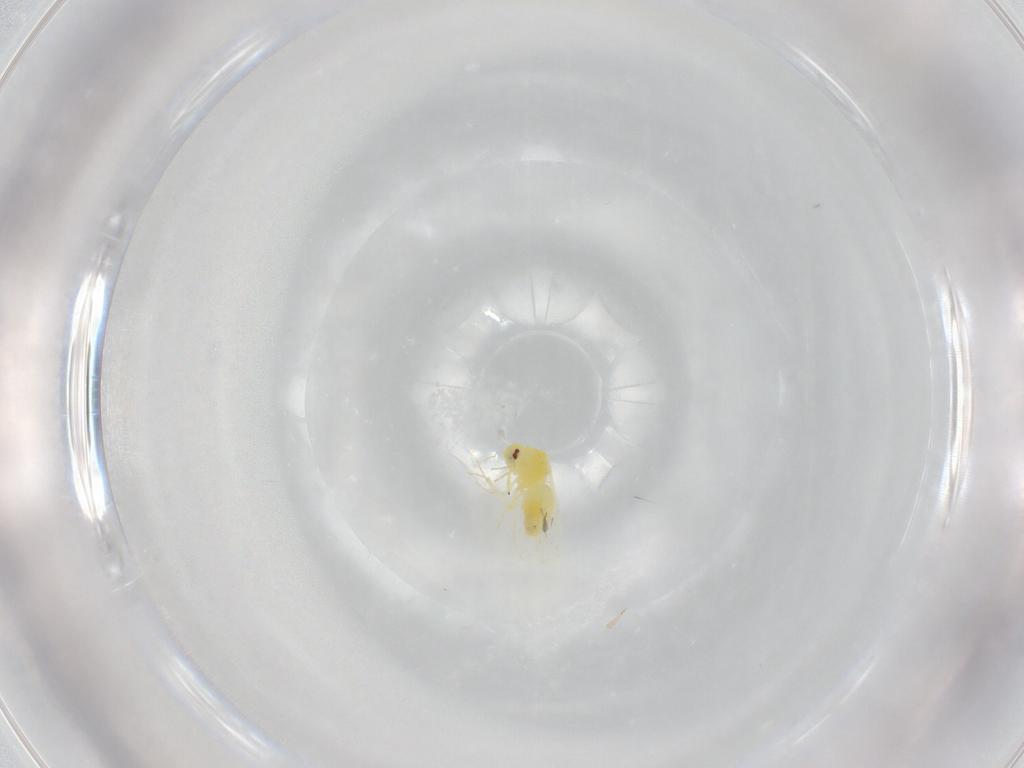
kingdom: Animalia
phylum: Arthropoda
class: Insecta
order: Hemiptera
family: Aleyrodidae
